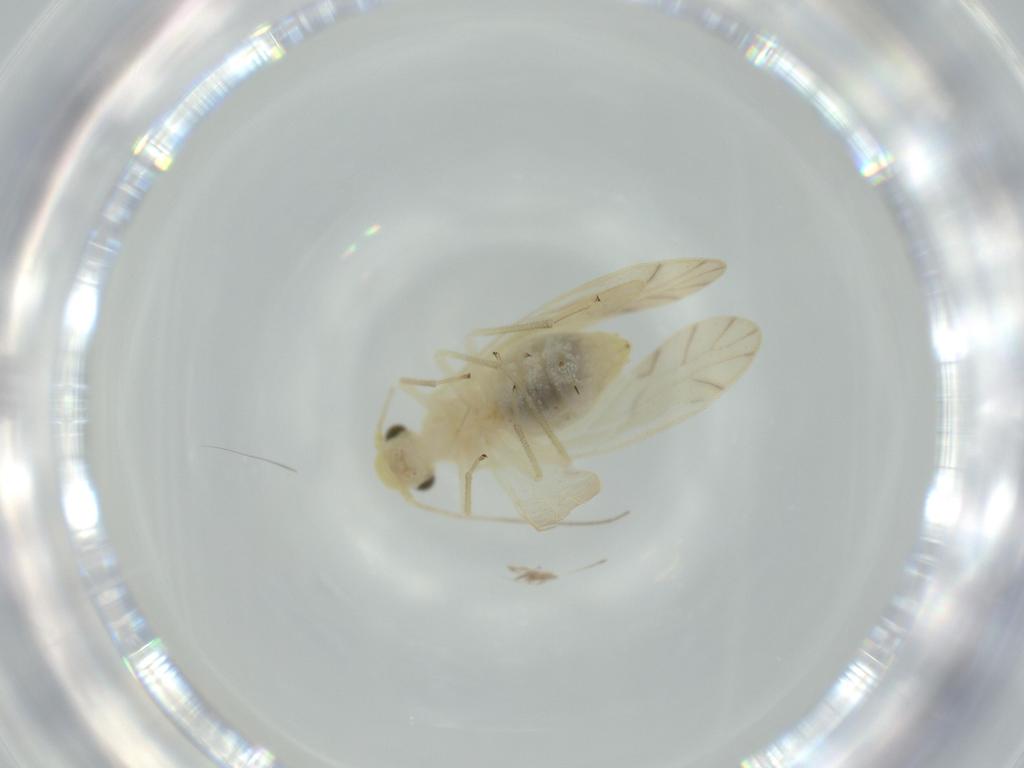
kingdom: Animalia
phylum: Arthropoda
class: Insecta
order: Psocodea
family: Caeciliusidae
